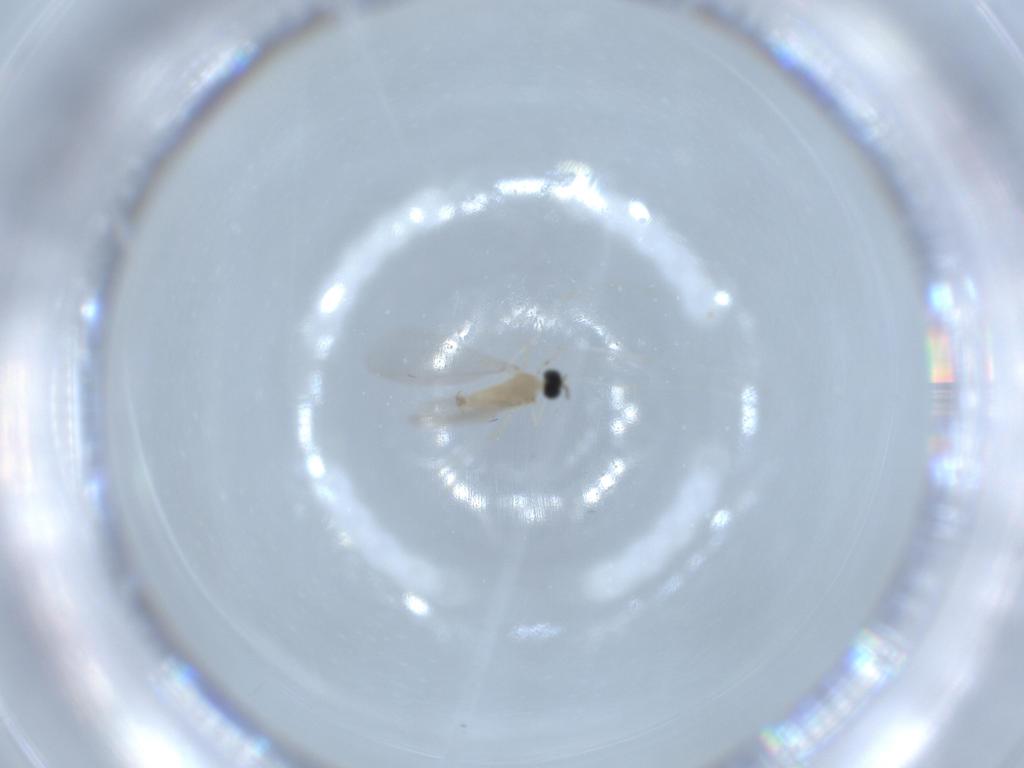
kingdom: Animalia
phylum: Arthropoda
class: Insecta
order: Diptera
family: Cecidomyiidae
